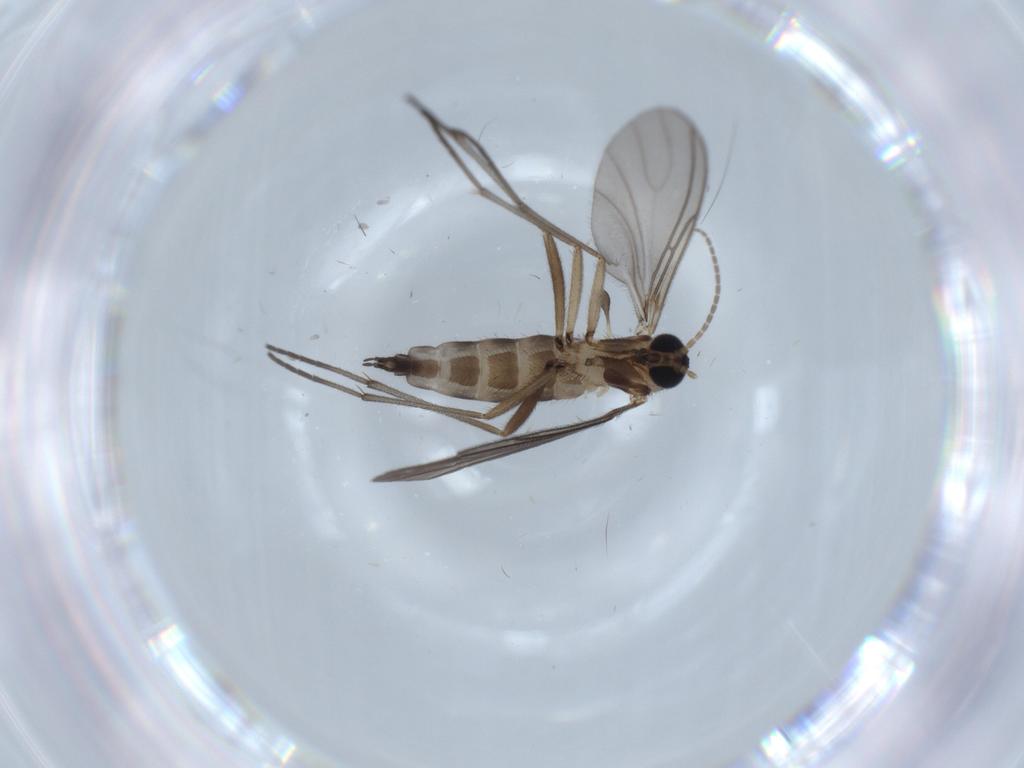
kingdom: Animalia
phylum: Arthropoda
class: Insecta
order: Diptera
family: Sciaridae
